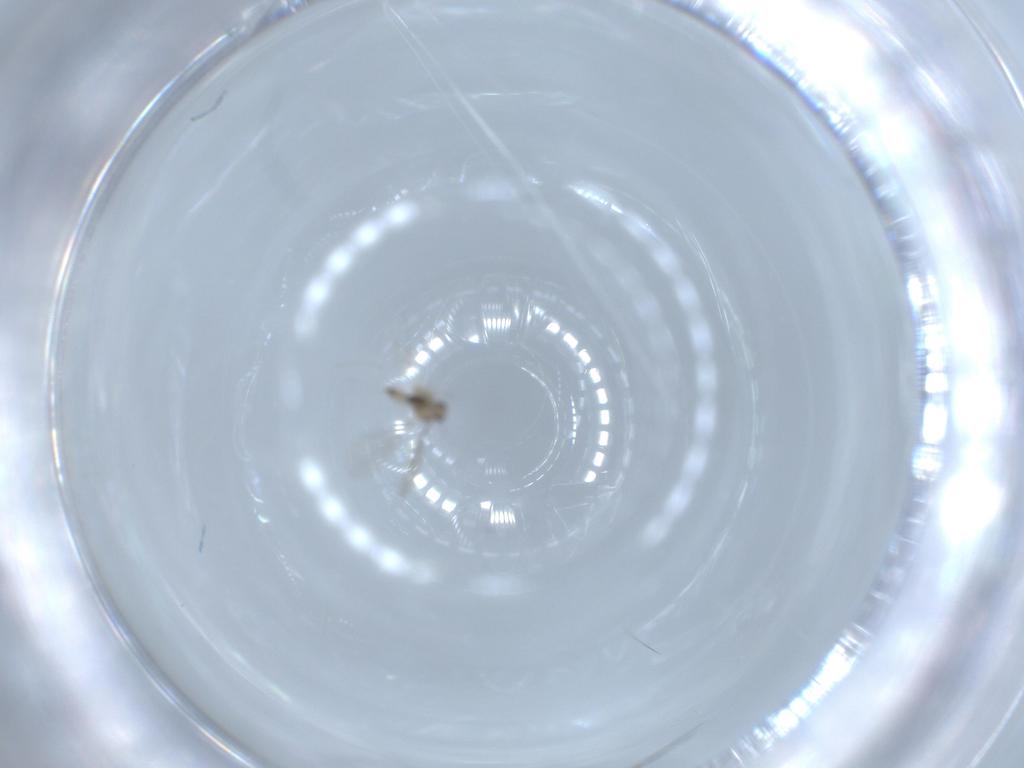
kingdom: Animalia
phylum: Arthropoda
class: Insecta
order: Diptera
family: Cecidomyiidae
